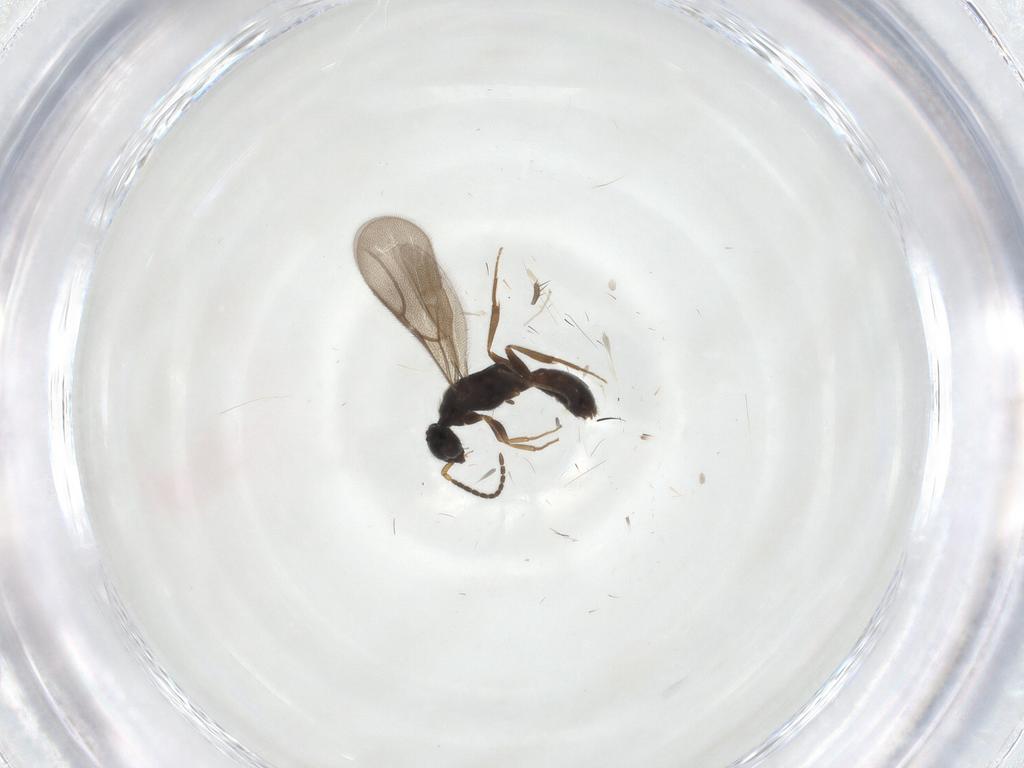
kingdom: Animalia
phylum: Arthropoda
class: Insecta
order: Hymenoptera
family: Bethylidae
